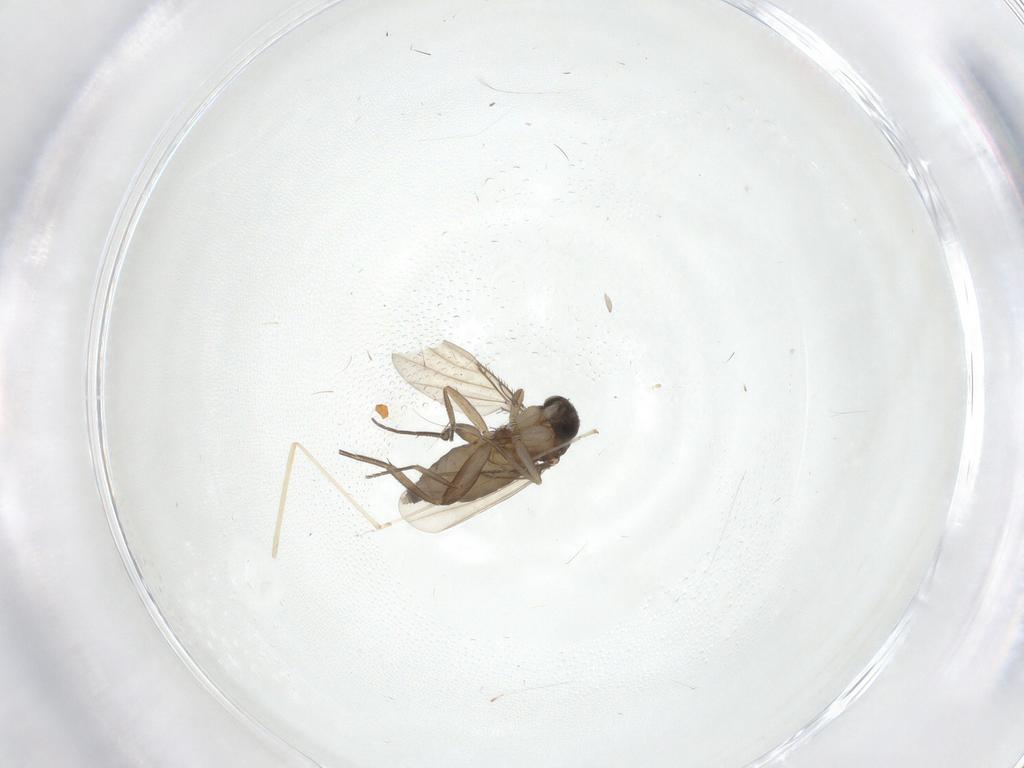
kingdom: Animalia
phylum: Arthropoda
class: Insecta
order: Diptera
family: Phoridae
